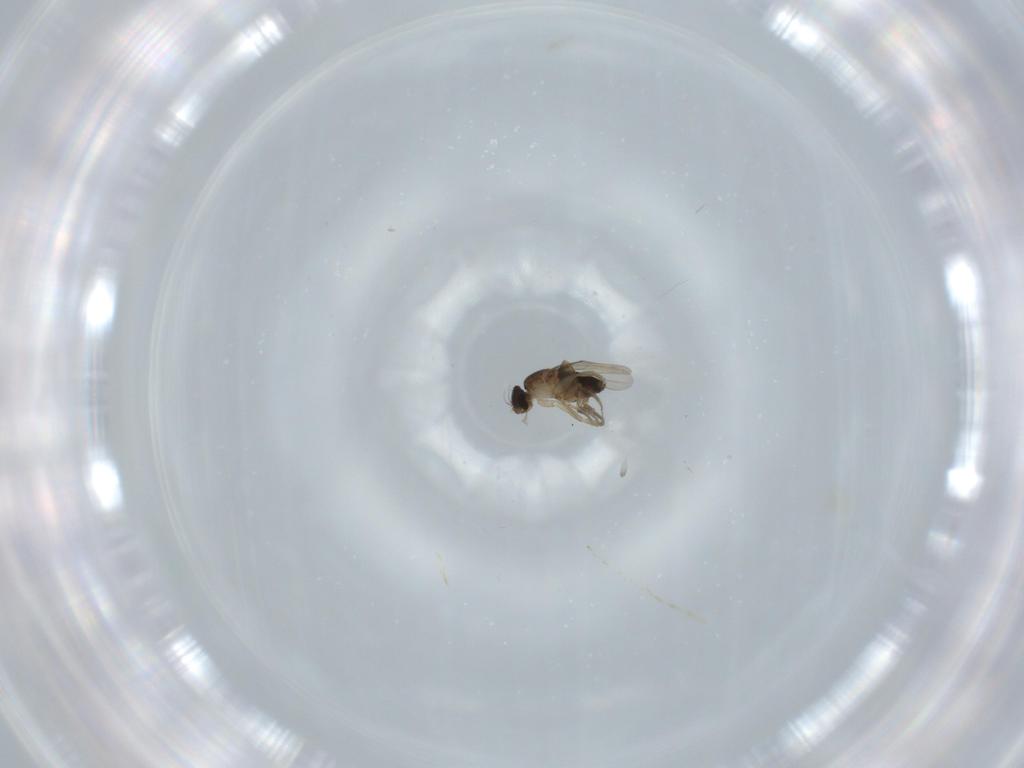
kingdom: Animalia
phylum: Arthropoda
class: Insecta
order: Diptera
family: Phoridae
